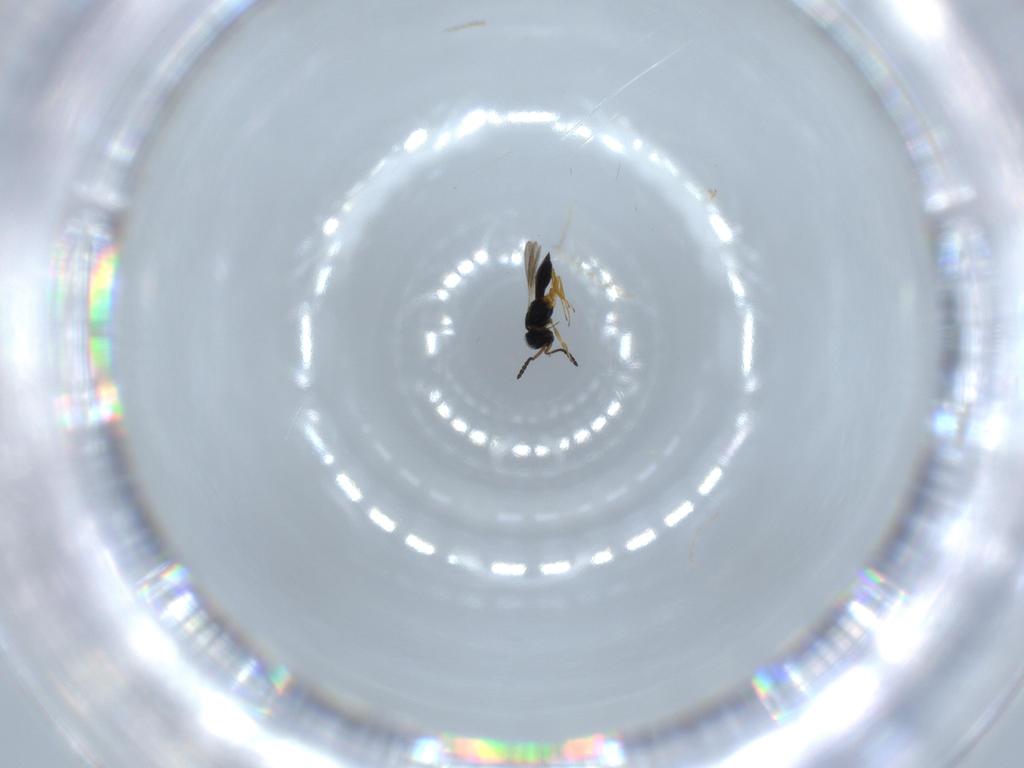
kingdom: Animalia
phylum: Arthropoda
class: Insecta
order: Hymenoptera
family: Scelionidae
